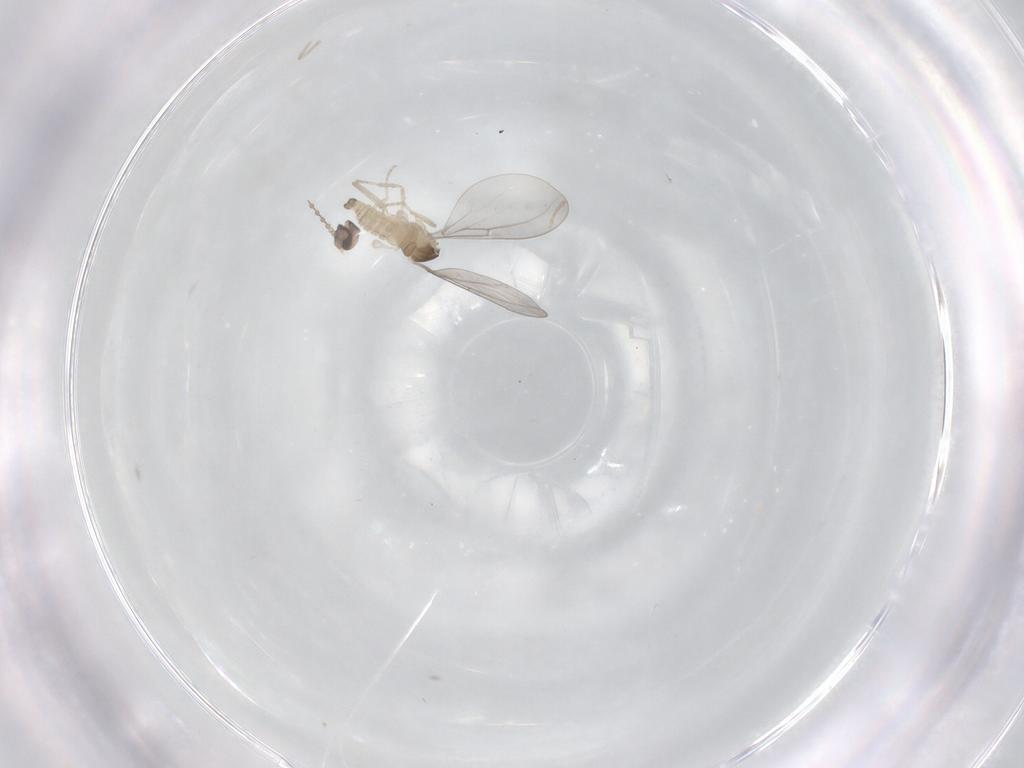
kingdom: Animalia
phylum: Arthropoda
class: Insecta
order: Diptera
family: Cecidomyiidae
